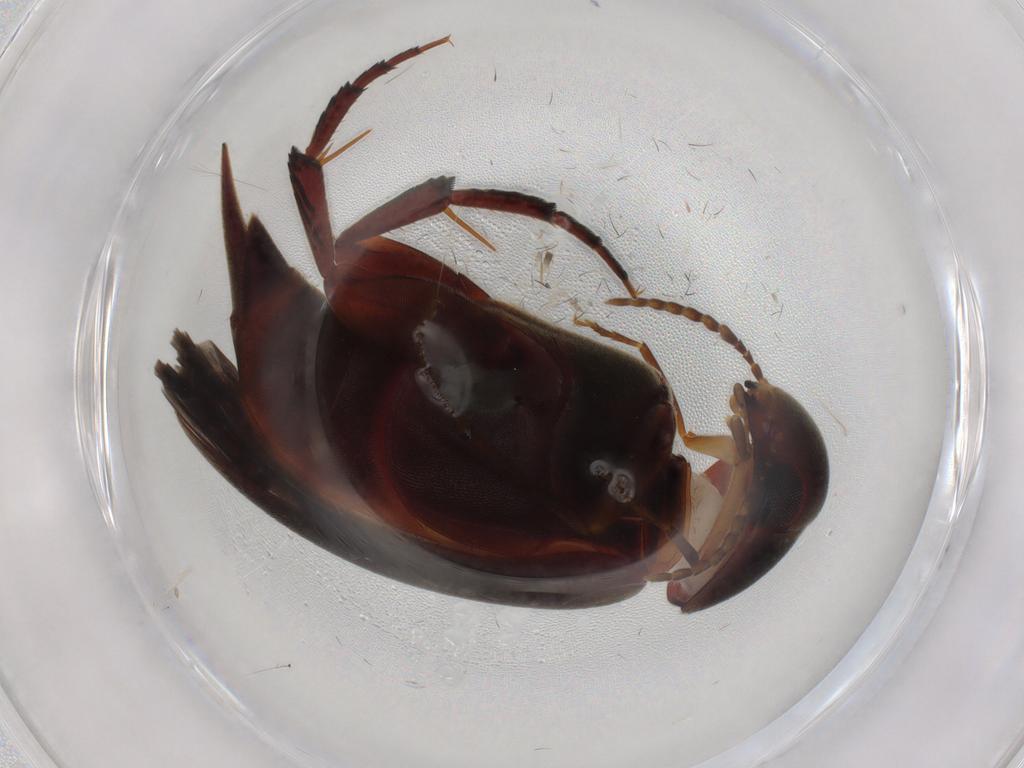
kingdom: Animalia
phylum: Arthropoda
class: Insecta
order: Coleoptera
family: Mordellidae
